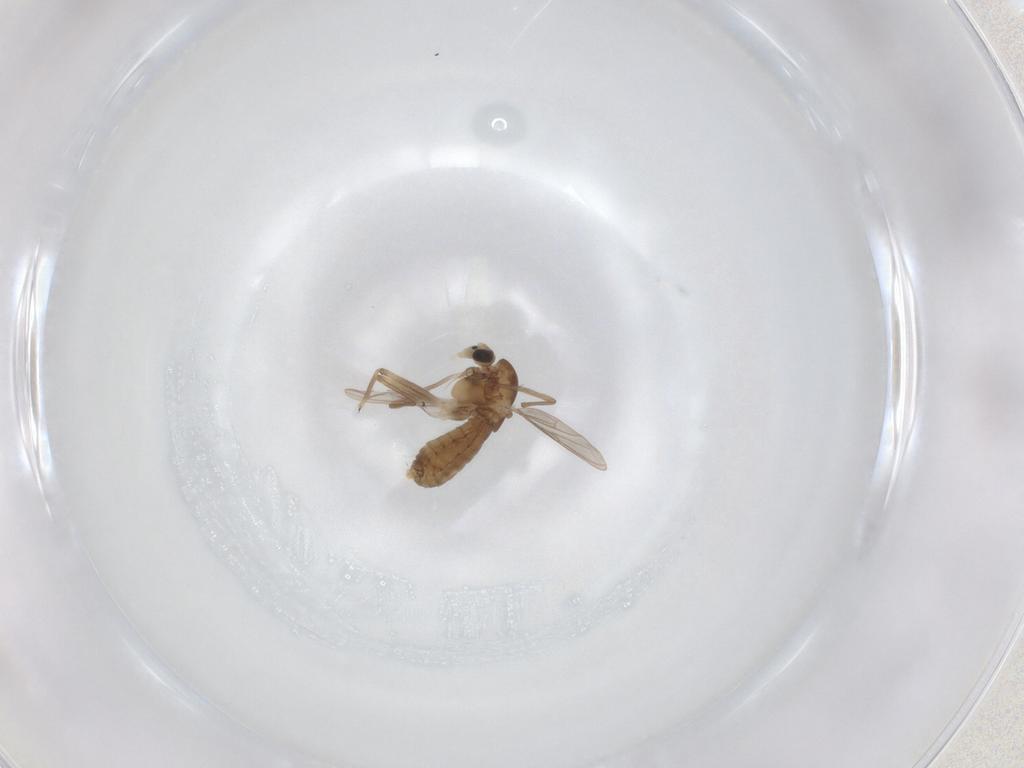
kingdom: Animalia
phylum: Arthropoda
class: Insecta
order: Diptera
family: Chironomidae
